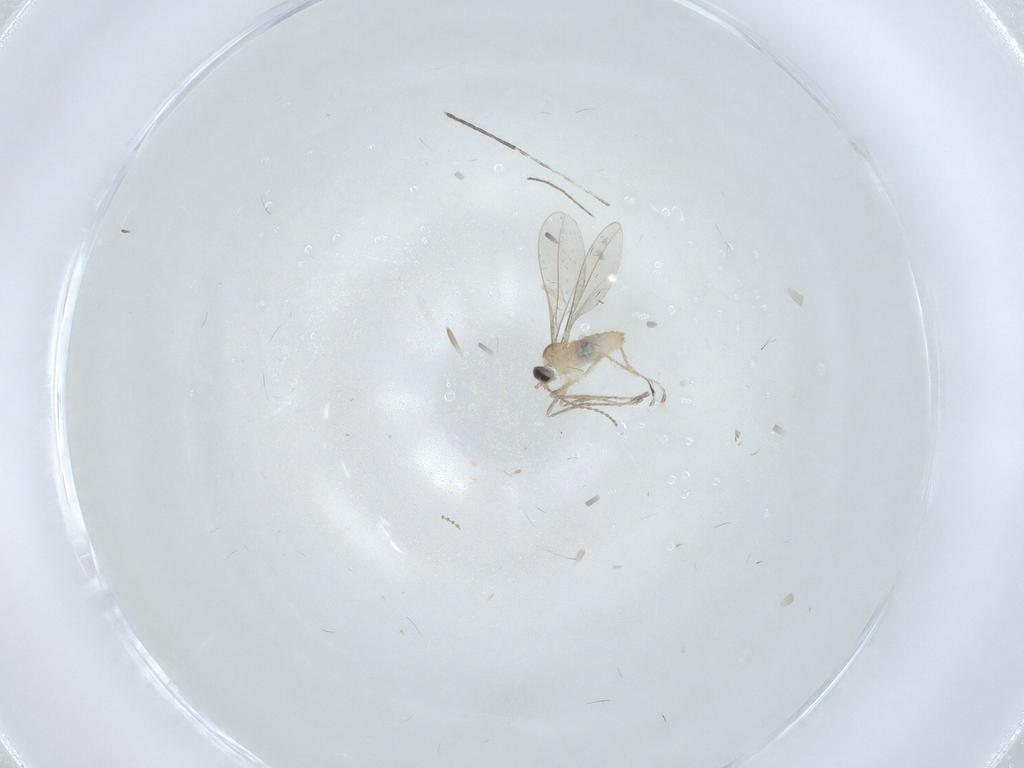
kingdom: Animalia
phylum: Arthropoda
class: Insecta
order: Diptera
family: Cecidomyiidae
